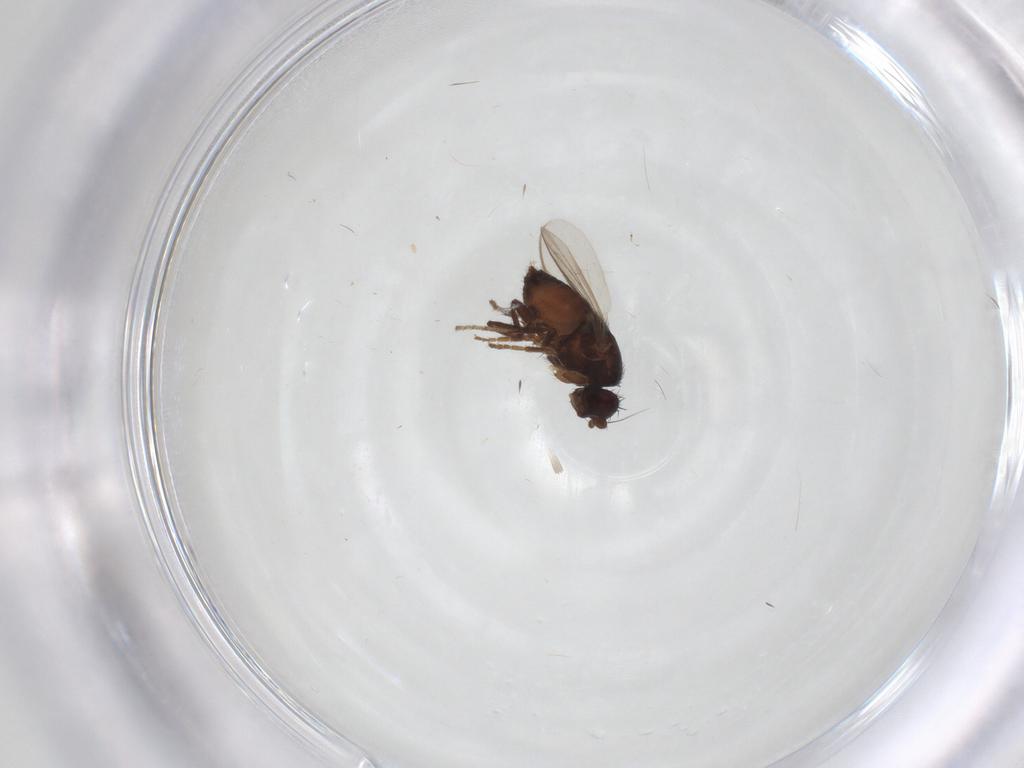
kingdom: Animalia
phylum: Arthropoda
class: Insecta
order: Diptera
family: Sphaeroceridae
